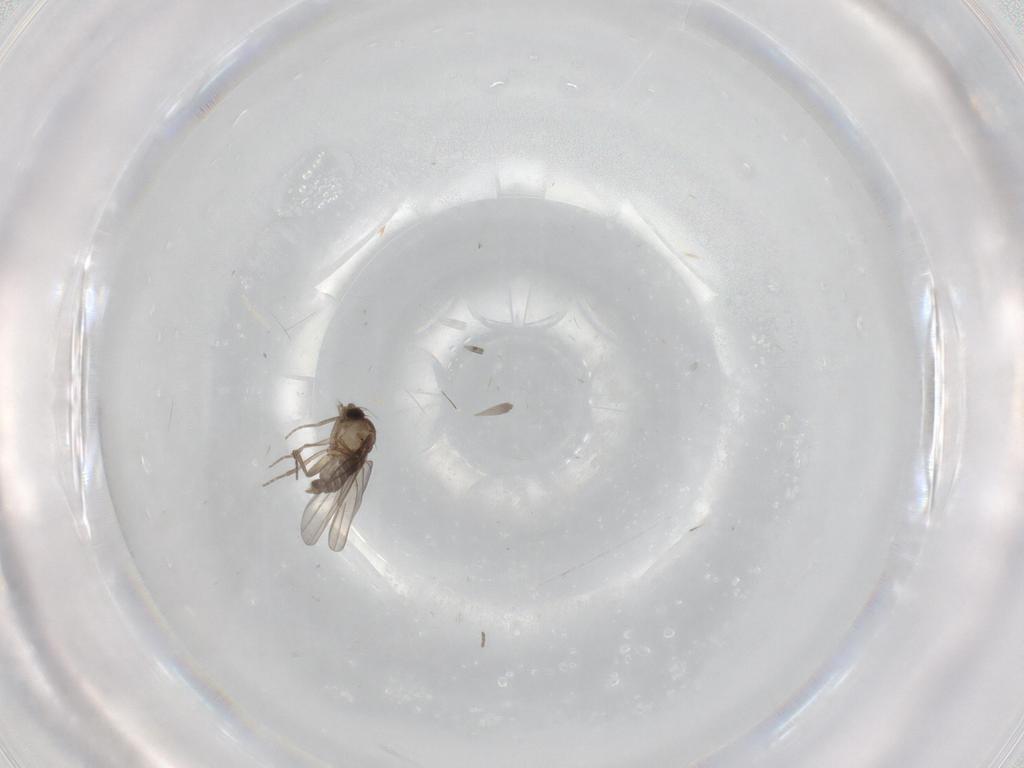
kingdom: Animalia
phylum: Arthropoda
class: Insecta
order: Diptera
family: Phoridae
